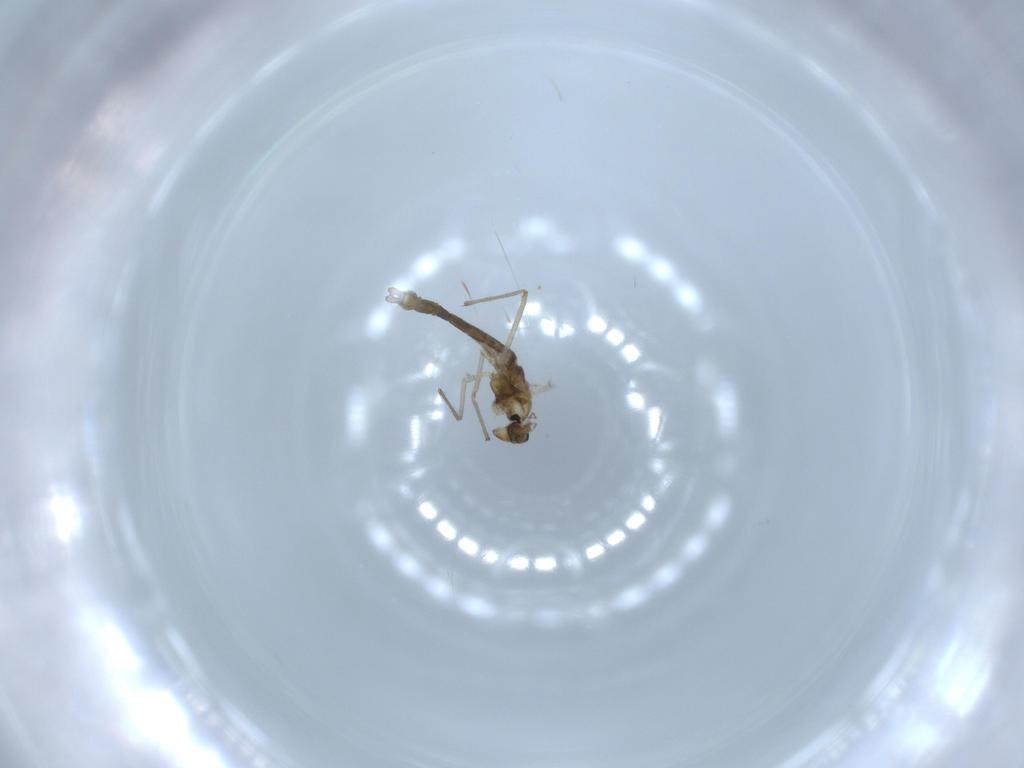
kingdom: Animalia
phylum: Arthropoda
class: Insecta
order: Diptera
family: Chironomidae
